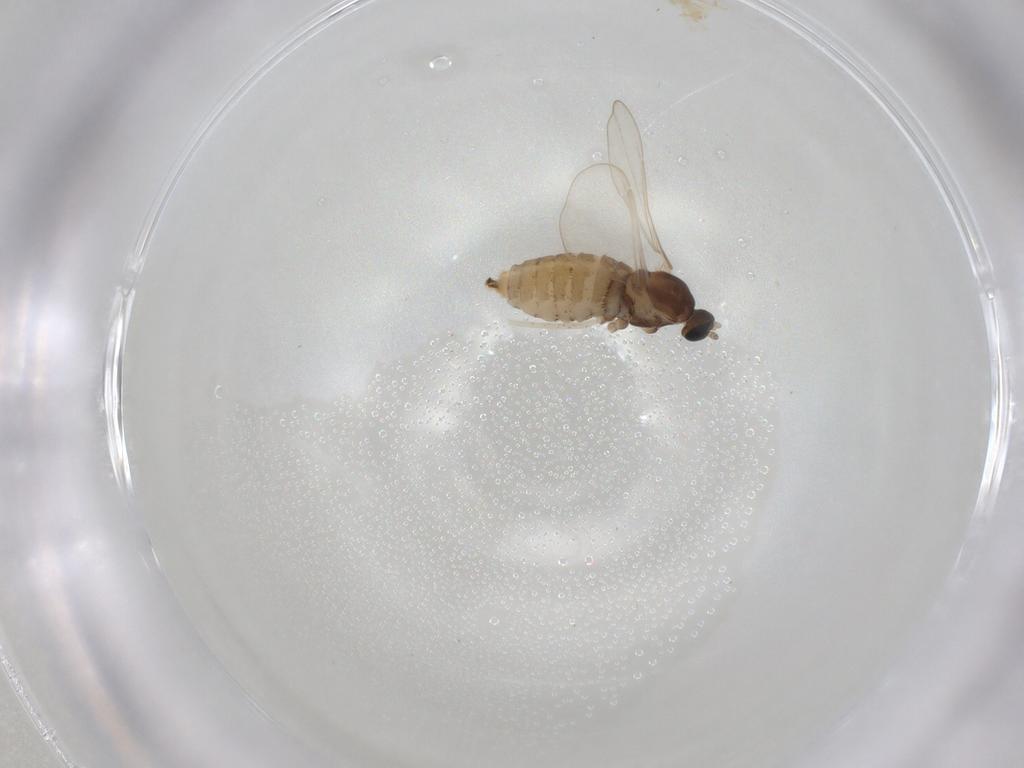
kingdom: Animalia
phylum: Arthropoda
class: Insecta
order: Diptera
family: Cecidomyiidae
